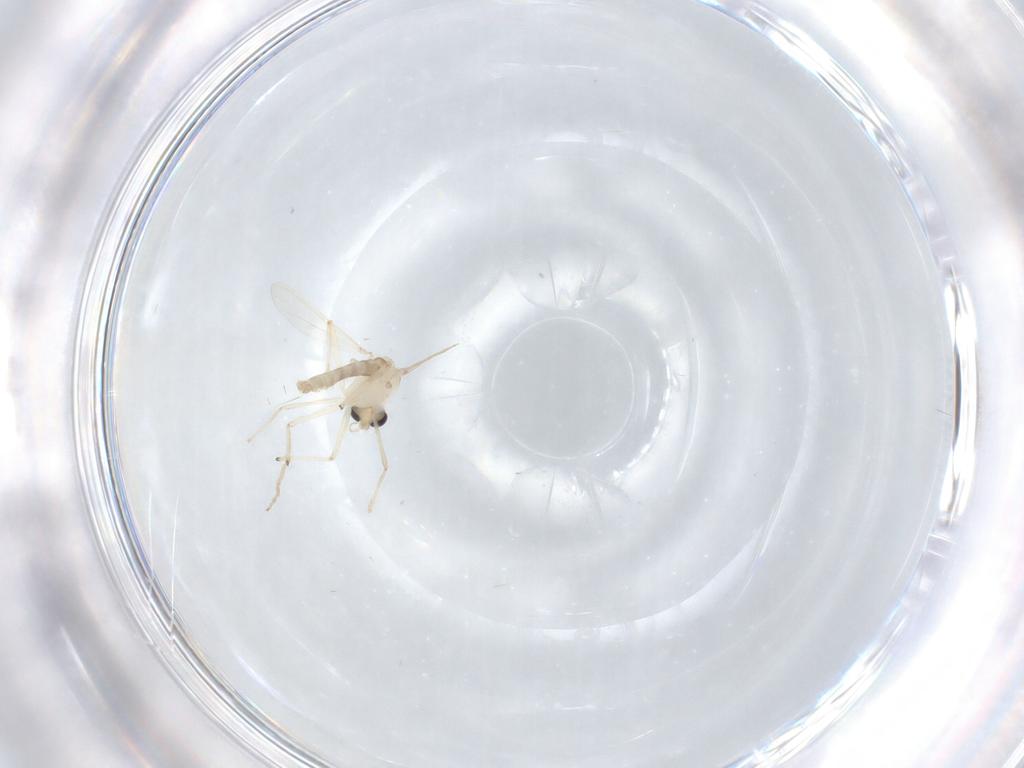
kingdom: Animalia
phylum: Arthropoda
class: Insecta
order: Diptera
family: Chironomidae
